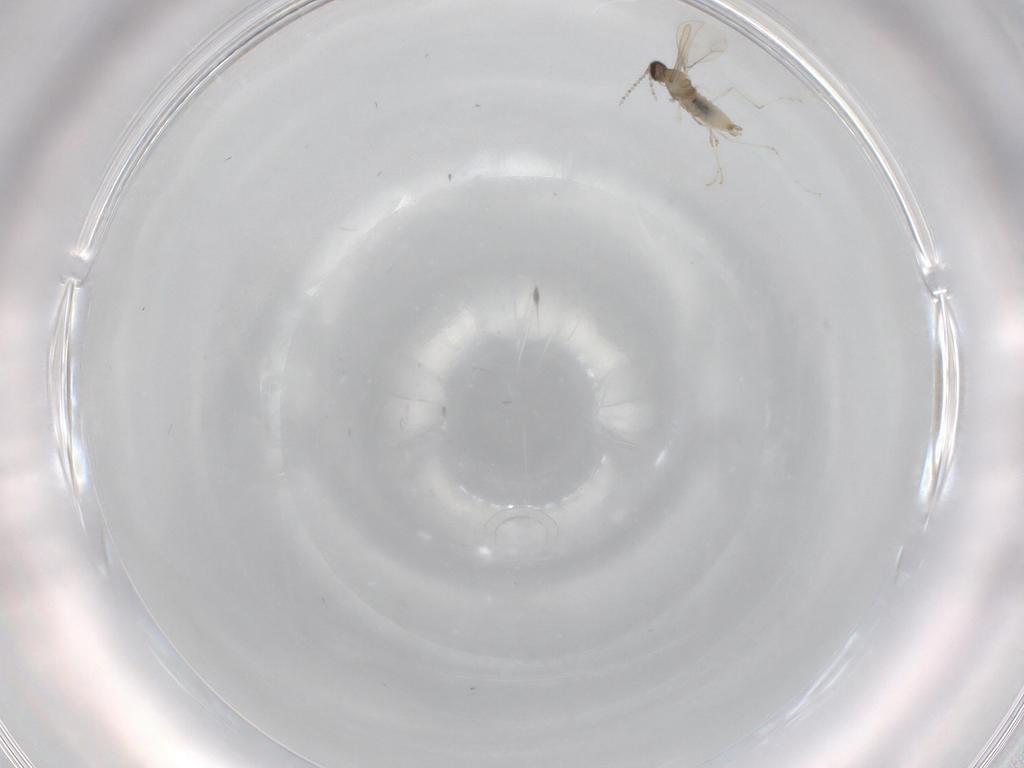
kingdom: Animalia
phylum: Arthropoda
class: Insecta
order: Diptera
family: Cecidomyiidae
